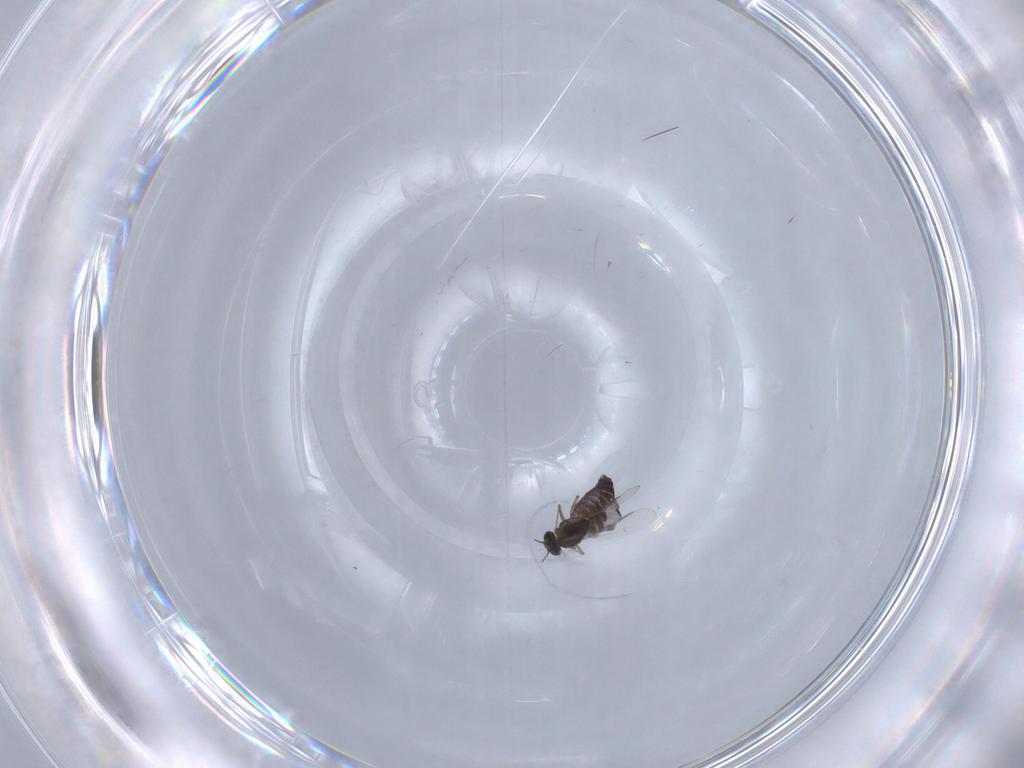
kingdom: Animalia
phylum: Arthropoda
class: Insecta
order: Diptera
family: Chironomidae
